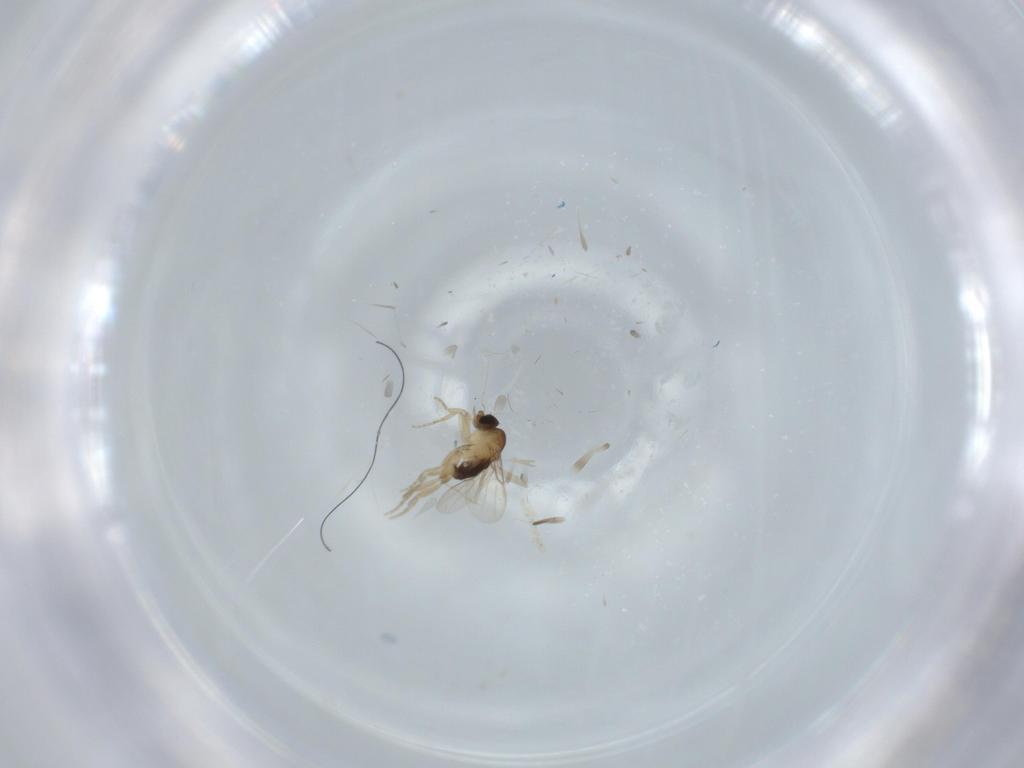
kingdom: Animalia
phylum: Arthropoda
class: Insecta
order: Diptera
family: Phoridae
